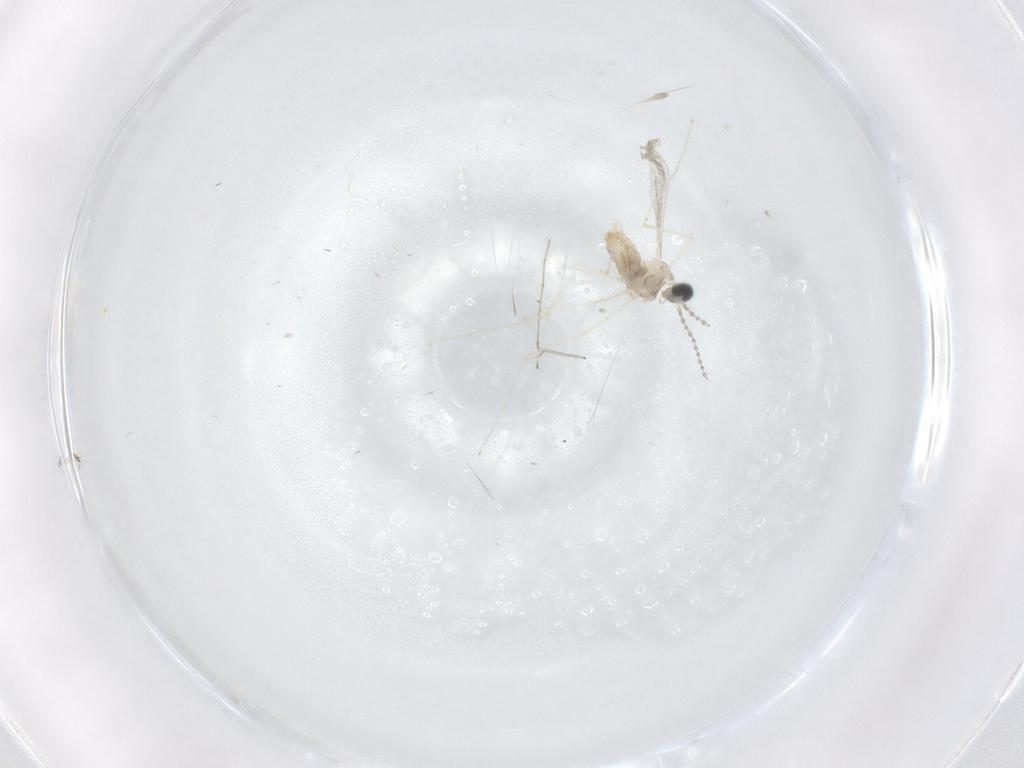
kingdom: Animalia
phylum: Arthropoda
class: Insecta
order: Diptera
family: Cecidomyiidae
